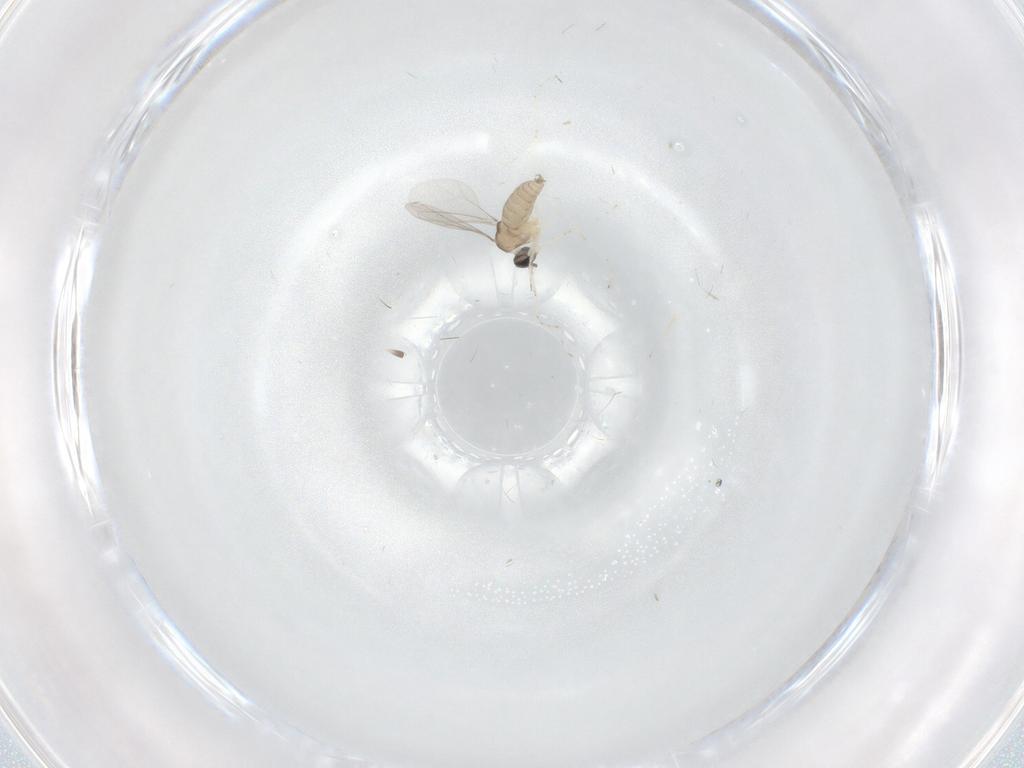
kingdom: Animalia
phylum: Arthropoda
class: Insecta
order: Diptera
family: Cecidomyiidae
